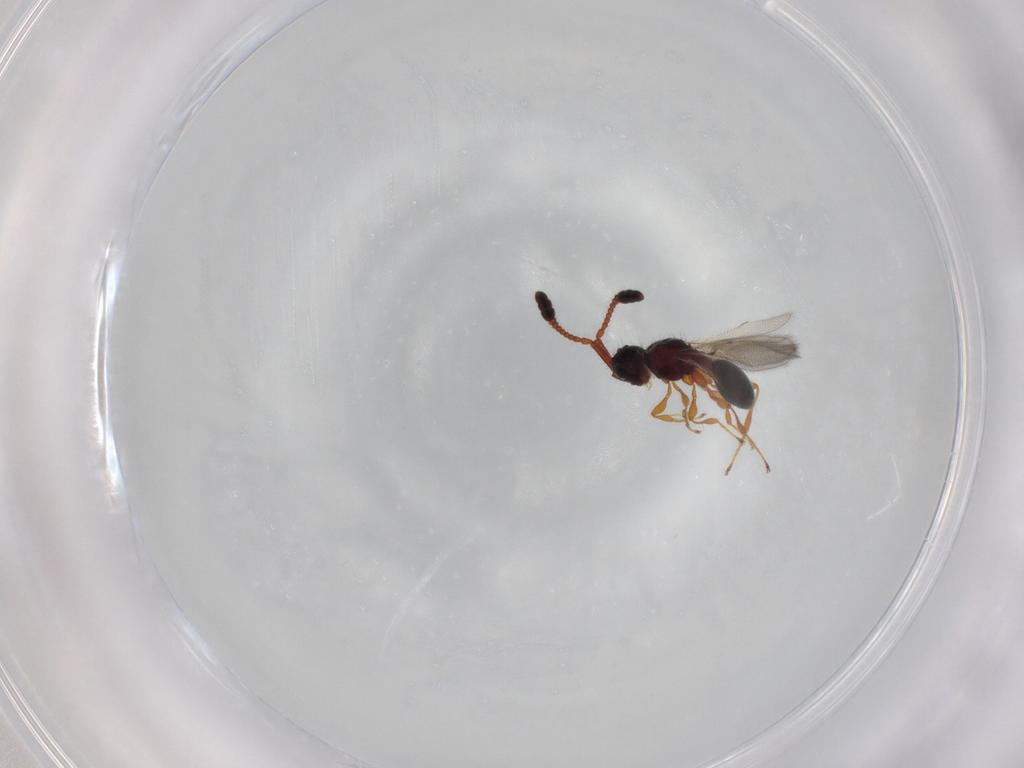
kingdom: Animalia
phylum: Arthropoda
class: Insecta
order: Hymenoptera
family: Diapriidae
